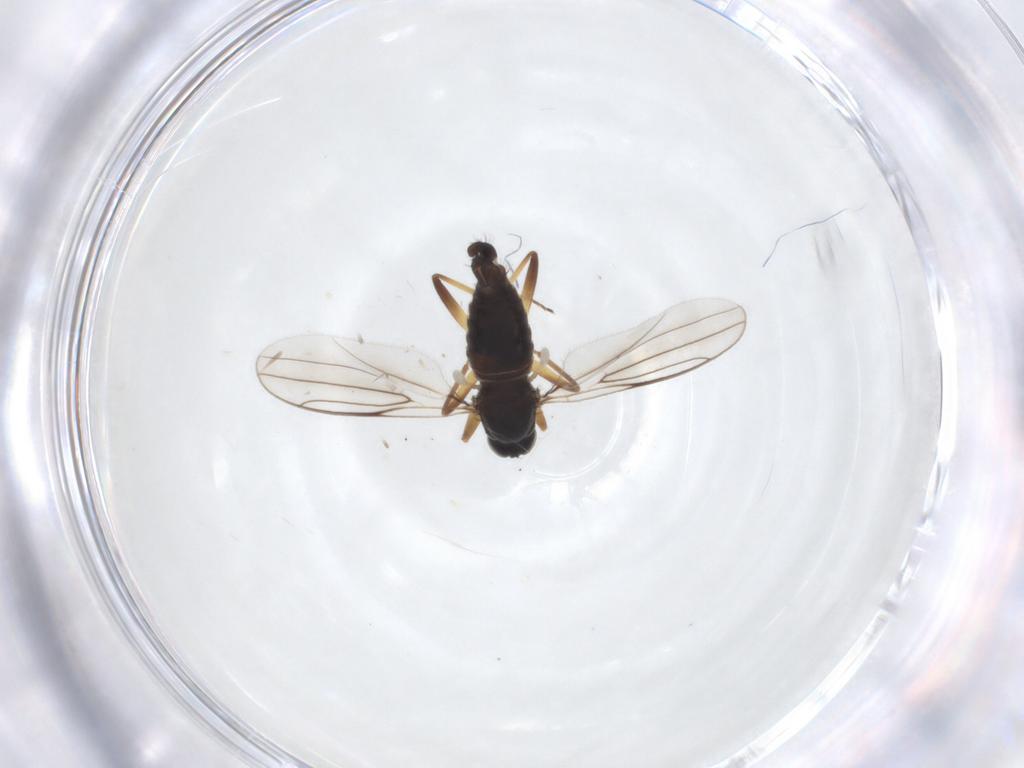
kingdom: Animalia
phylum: Arthropoda
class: Insecta
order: Diptera
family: Hybotidae
